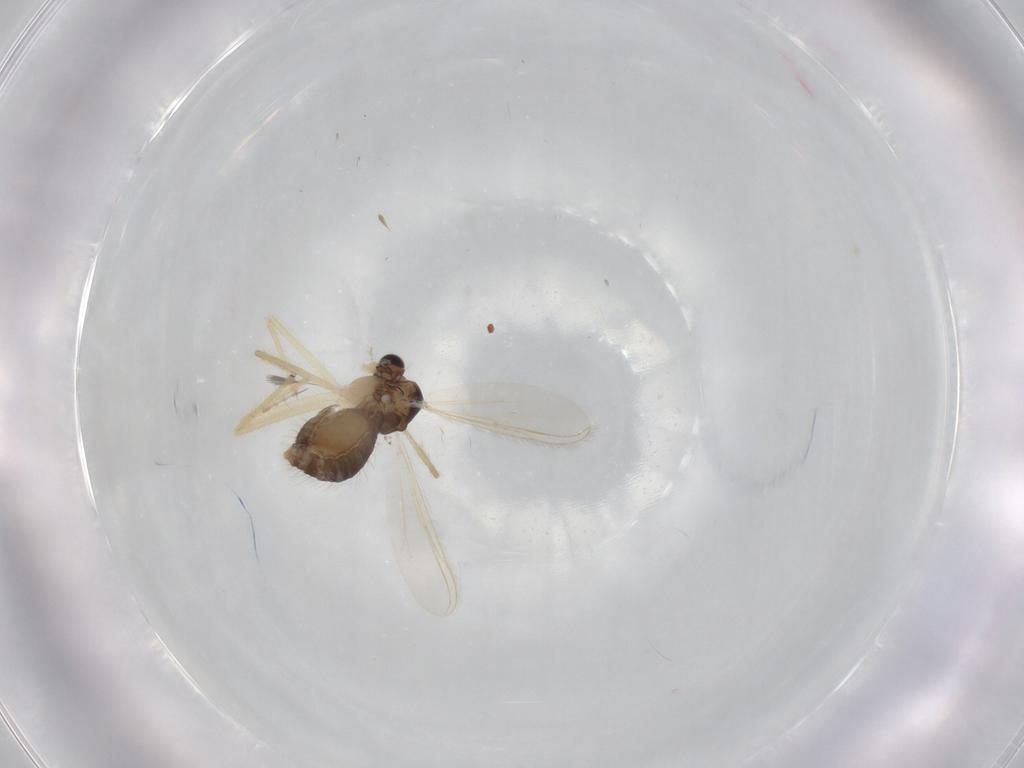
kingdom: Animalia
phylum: Arthropoda
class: Insecta
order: Diptera
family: Chironomidae
